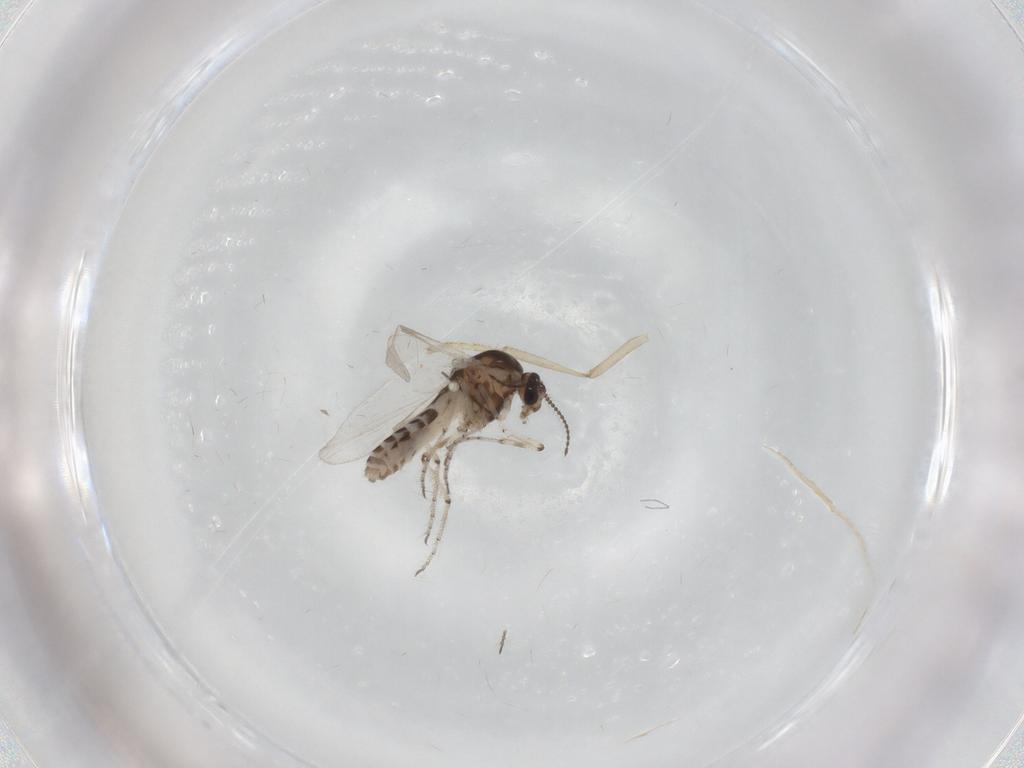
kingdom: Animalia
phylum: Arthropoda
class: Insecta
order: Diptera
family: Ceratopogonidae
